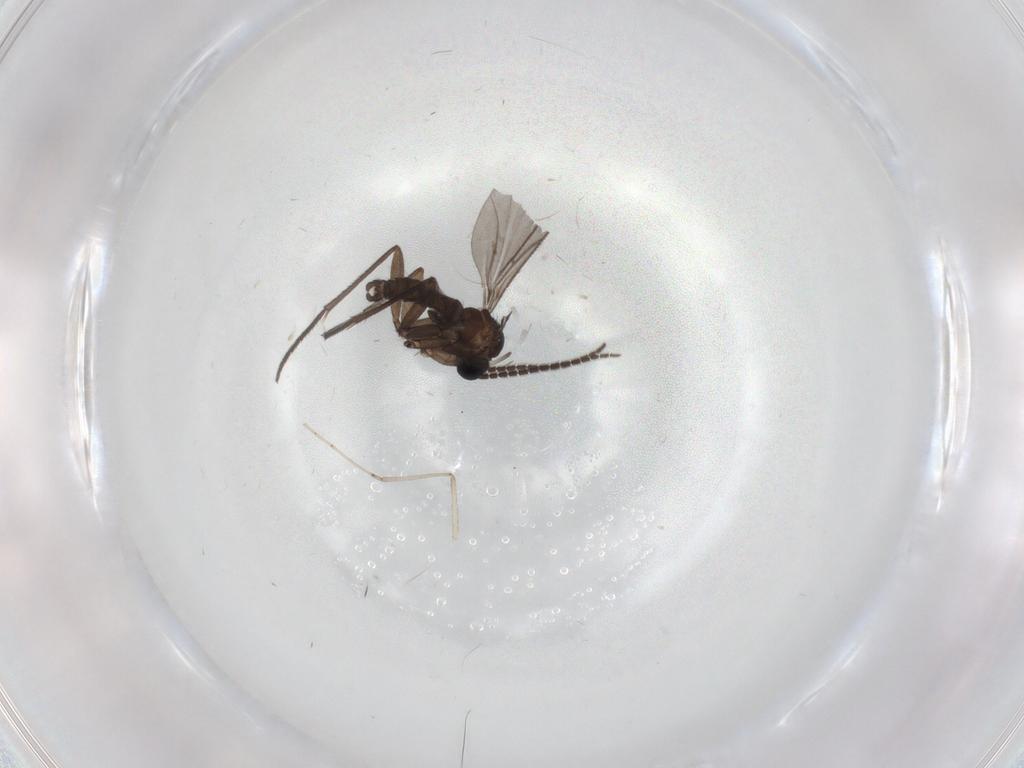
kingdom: Animalia
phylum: Arthropoda
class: Insecta
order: Diptera
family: Sciaridae
